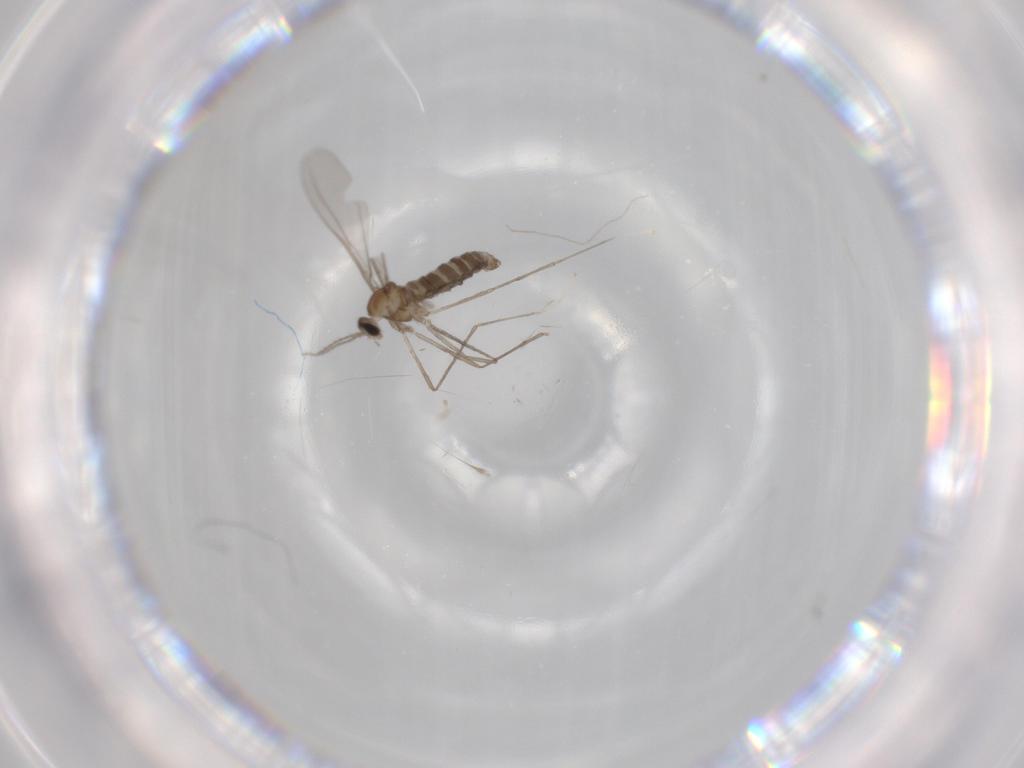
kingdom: Animalia
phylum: Arthropoda
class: Insecta
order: Diptera
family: Cecidomyiidae
